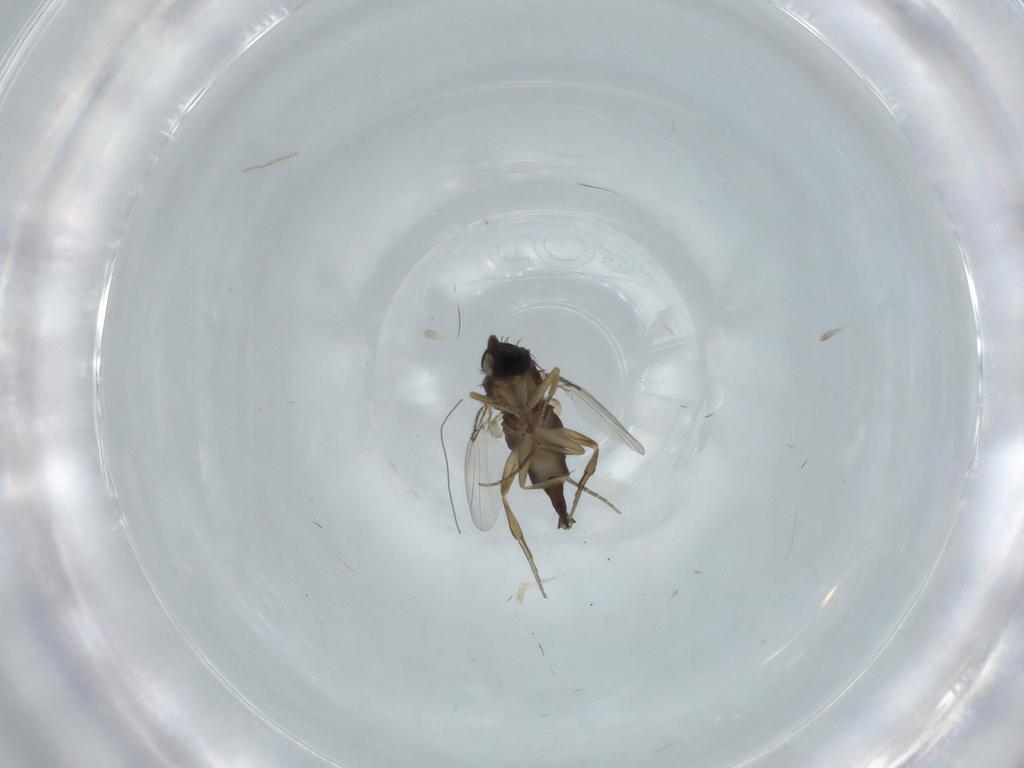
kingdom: Animalia
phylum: Arthropoda
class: Insecta
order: Diptera
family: Phoridae
